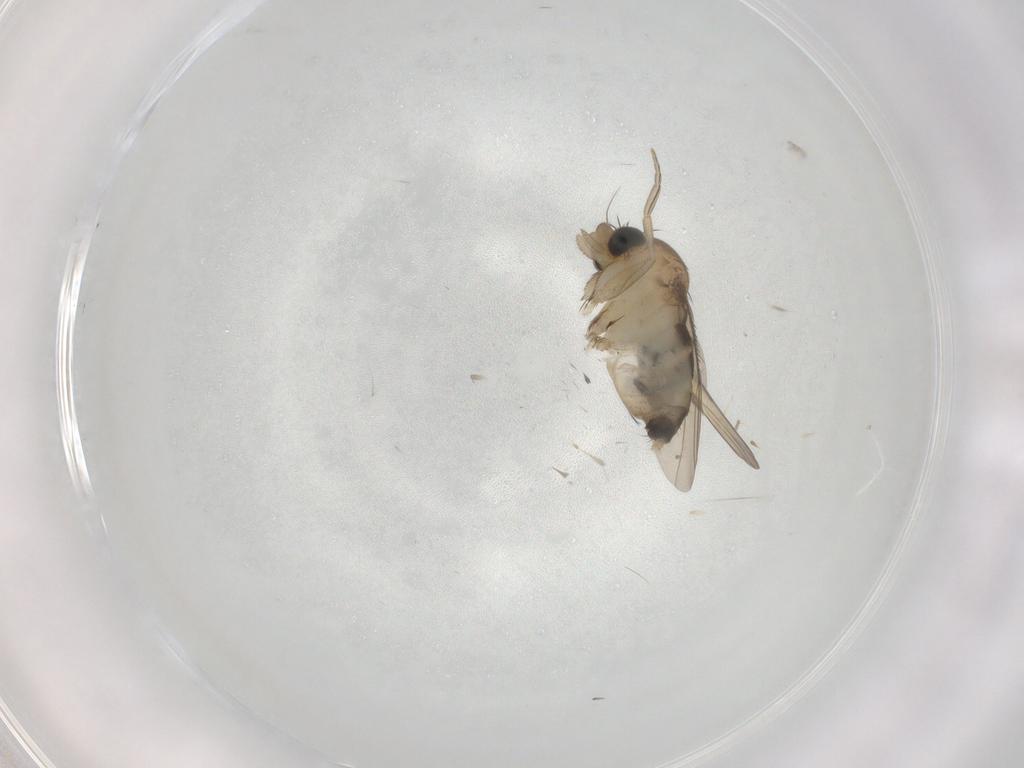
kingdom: Animalia
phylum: Arthropoda
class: Insecta
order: Diptera
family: Phoridae
